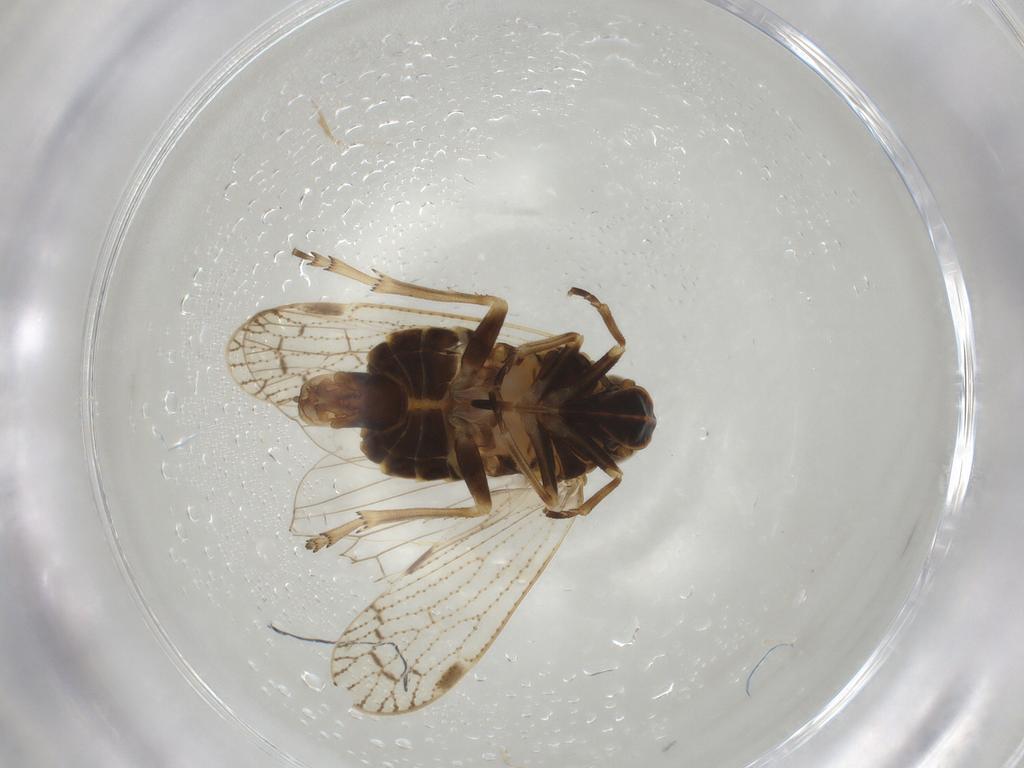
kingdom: Animalia
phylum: Arthropoda
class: Insecta
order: Hemiptera
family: Cixiidae
